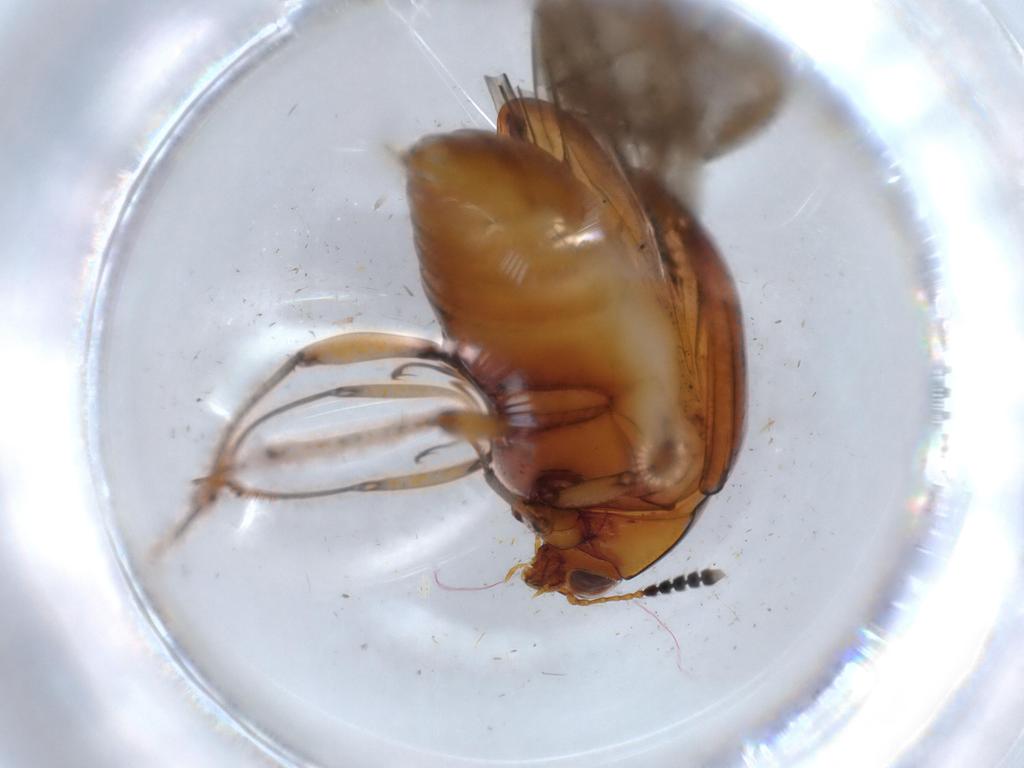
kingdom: Animalia
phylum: Arthropoda
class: Insecta
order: Coleoptera
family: Staphylinidae
